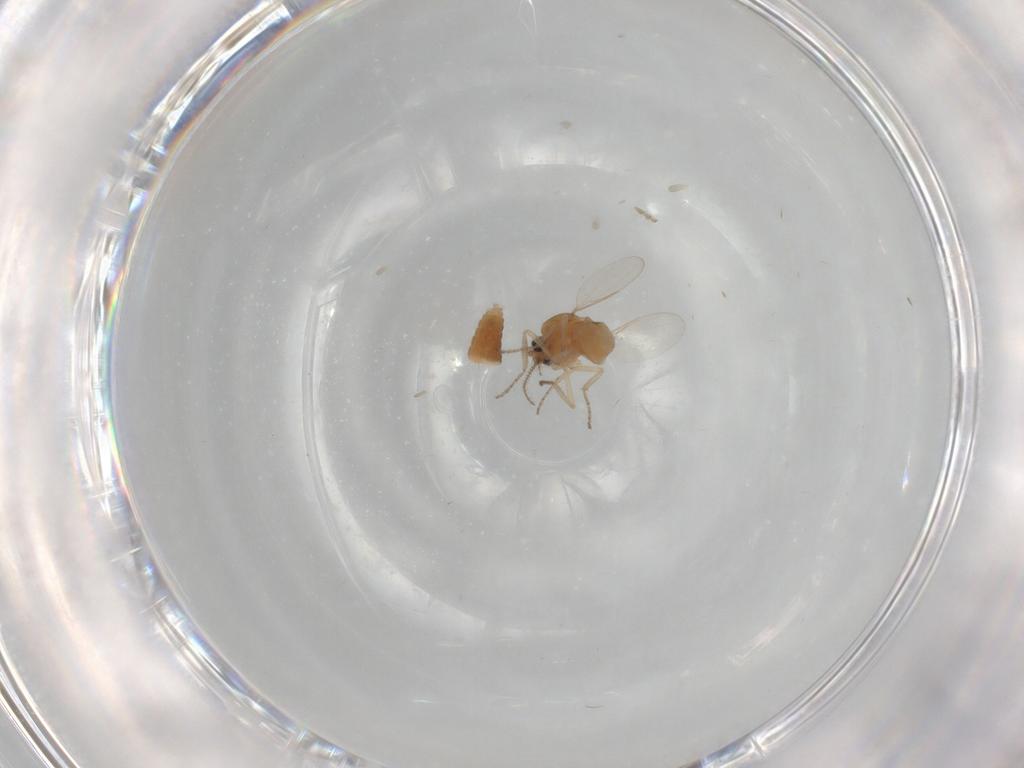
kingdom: Animalia
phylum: Arthropoda
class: Insecta
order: Diptera
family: Ceratopogonidae
